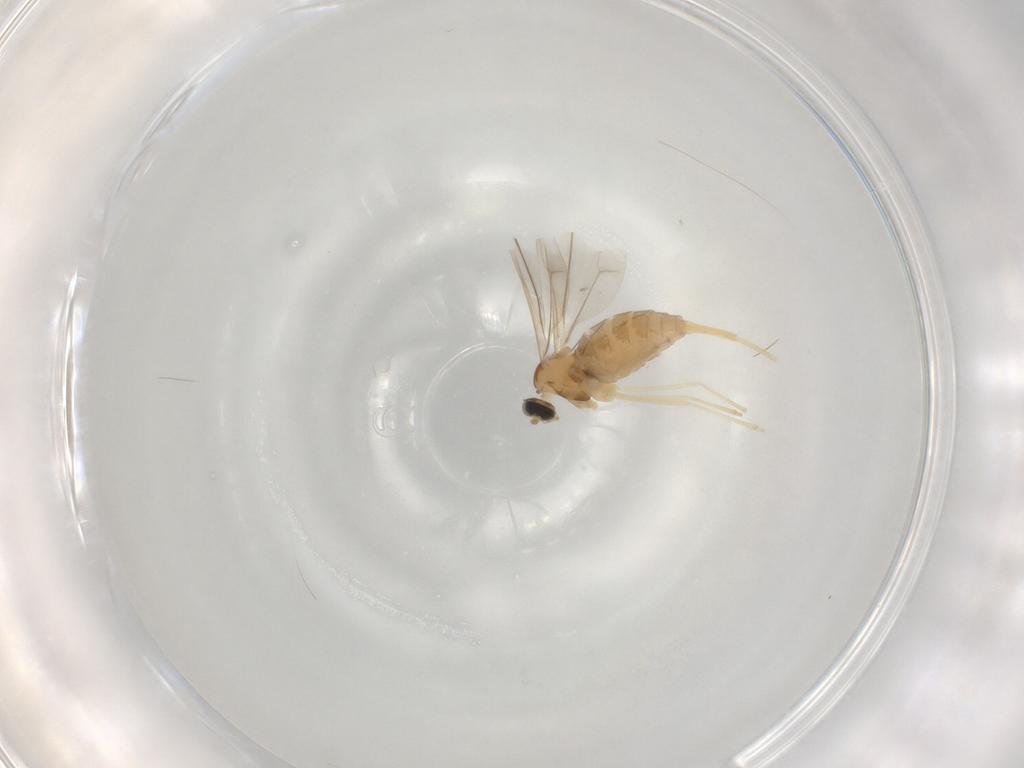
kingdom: Animalia
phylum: Arthropoda
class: Insecta
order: Diptera
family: Cecidomyiidae
